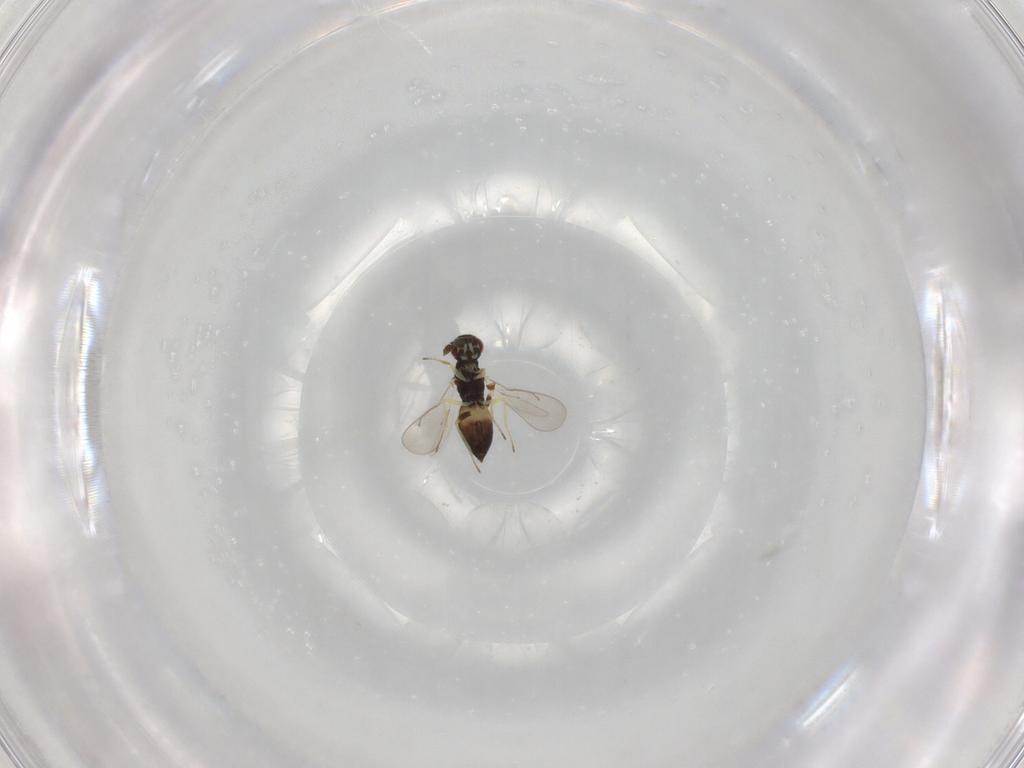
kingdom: Animalia
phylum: Arthropoda
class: Insecta
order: Hymenoptera
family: Eulophidae
